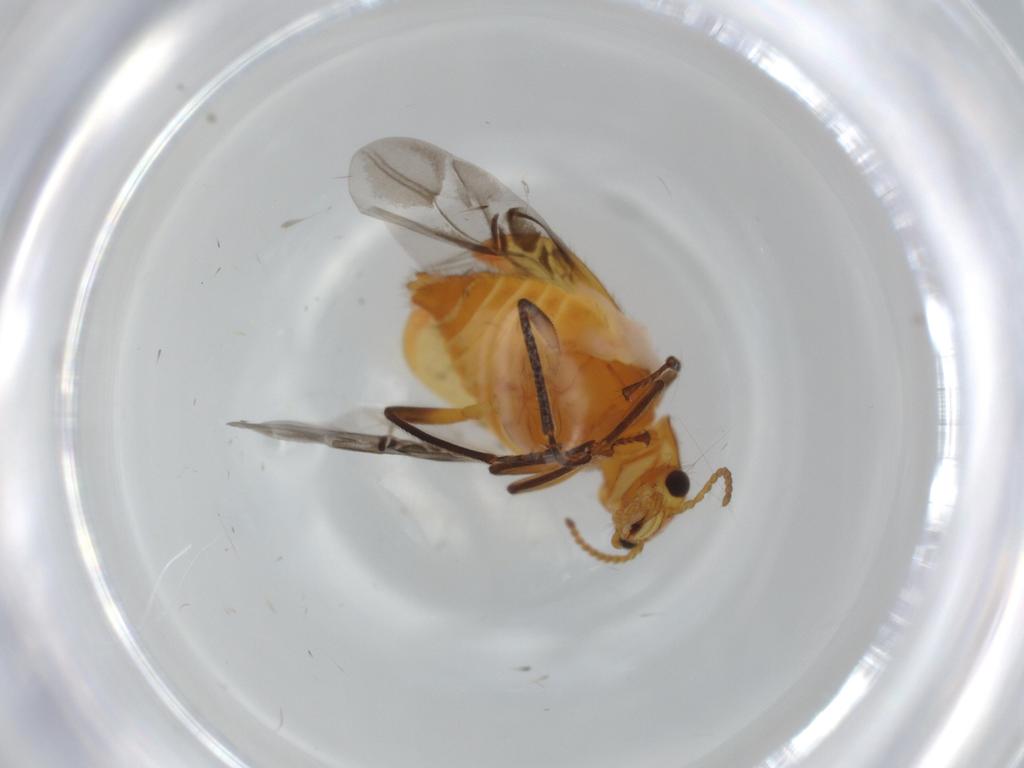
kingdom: Animalia
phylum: Arthropoda
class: Insecta
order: Coleoptera
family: Melyridae
